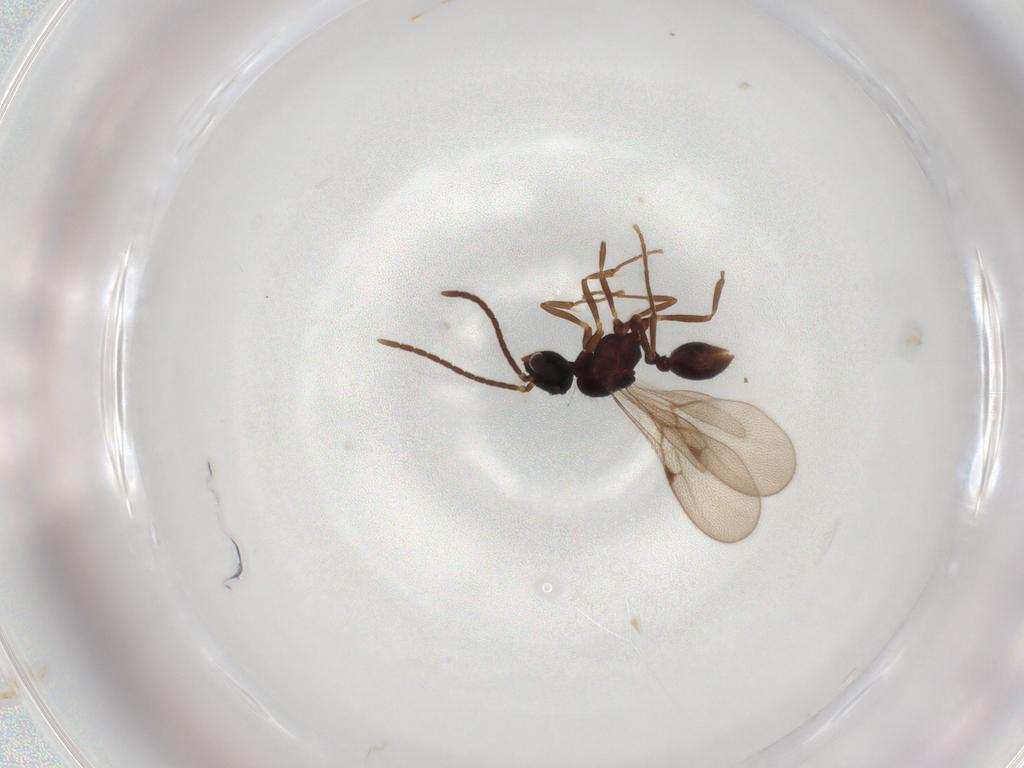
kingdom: Animalia
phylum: Arthropoda
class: Insecta
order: Hymenoptera
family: Formicidae
